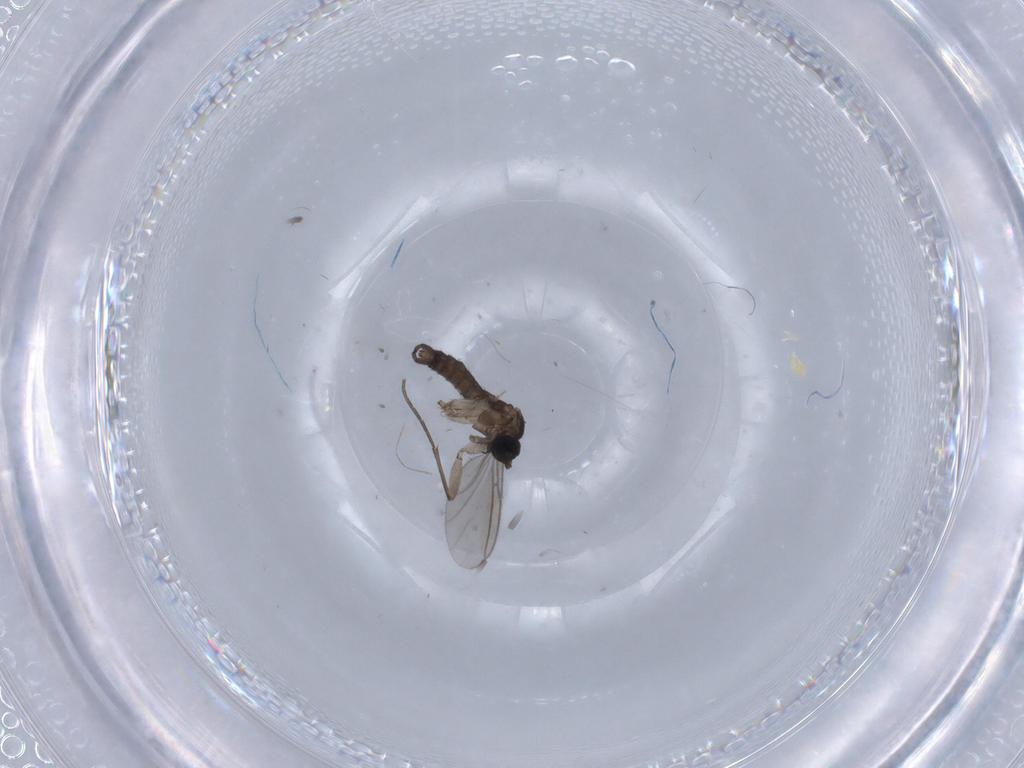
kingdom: Animalia
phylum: Arthropoda
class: Insecta
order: Diptera
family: Sciaridae
